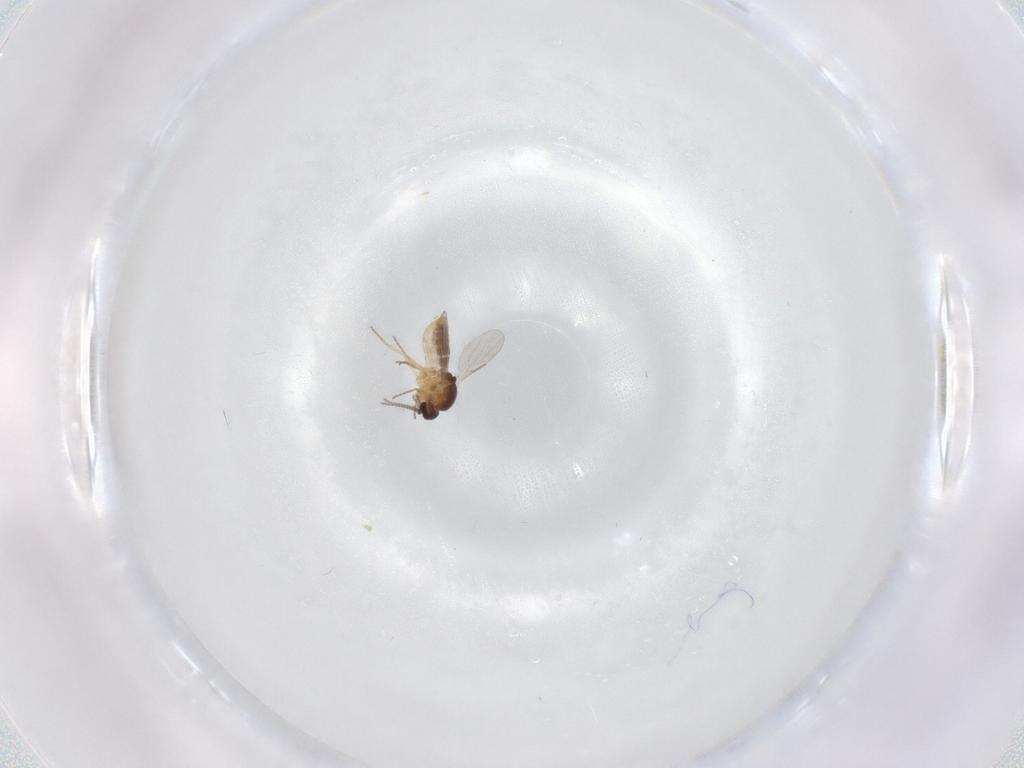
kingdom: Animalia
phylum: Arthropoda
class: Insecta
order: Diptera
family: Ceratopogonidae
